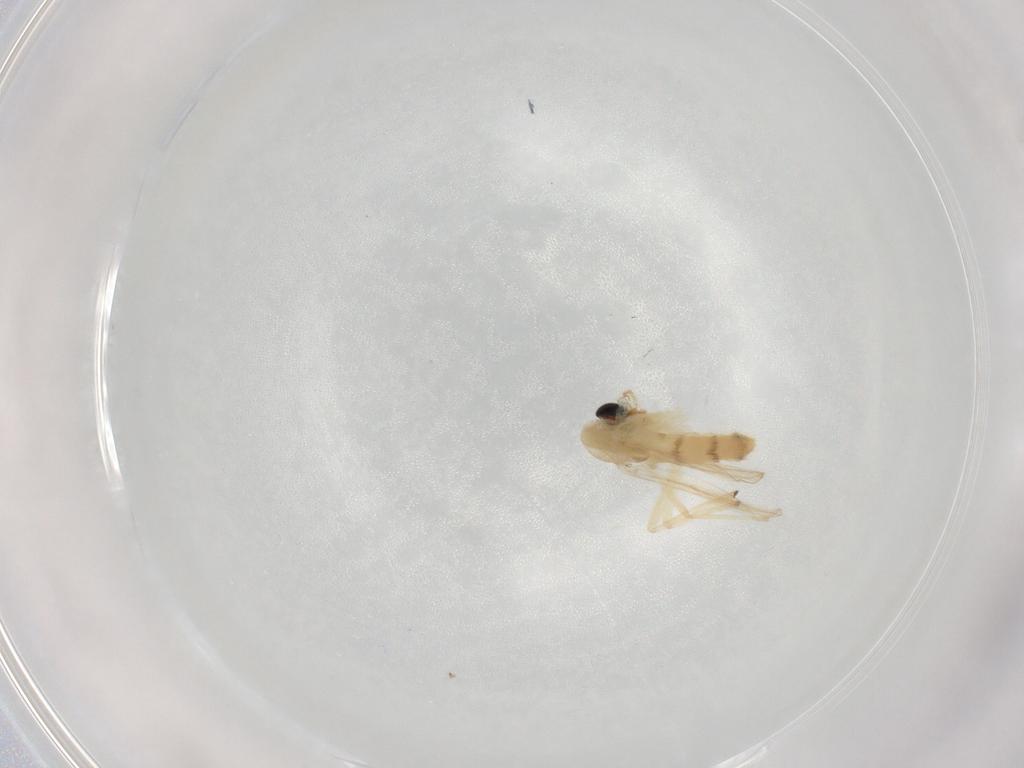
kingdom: Animalia
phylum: Arthropoda
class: Insecta
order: Diptera
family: Chironomidae
